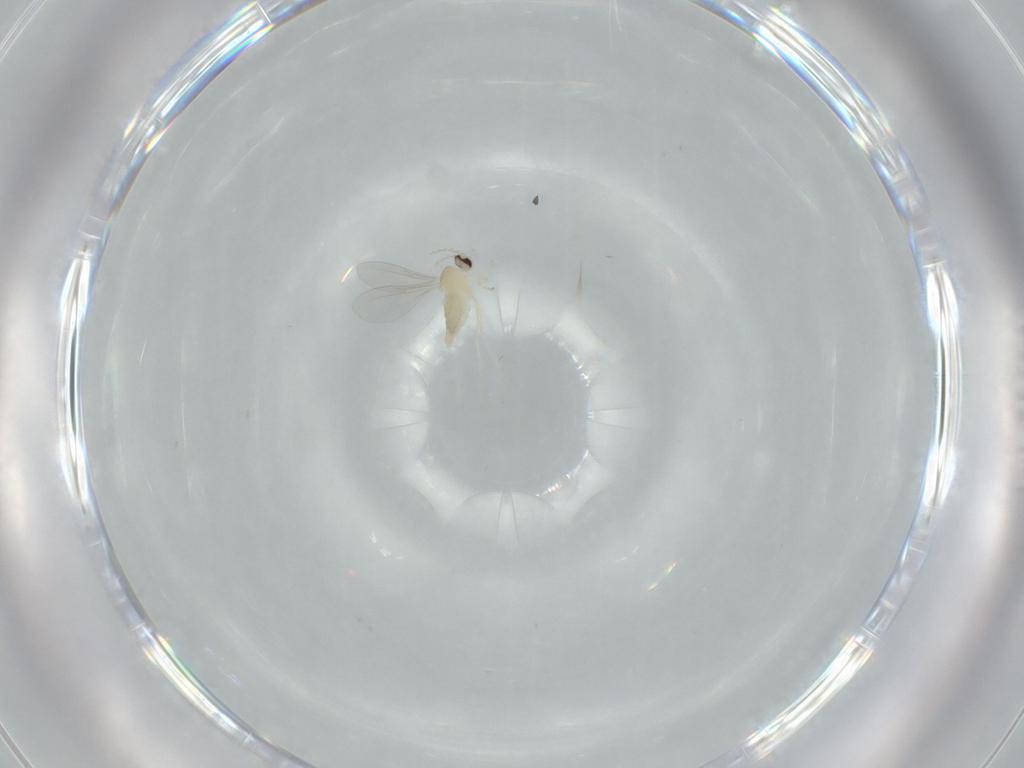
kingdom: Animalia
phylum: Arthropoda
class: Insecta
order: Diptera
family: Cecidomyiidae
